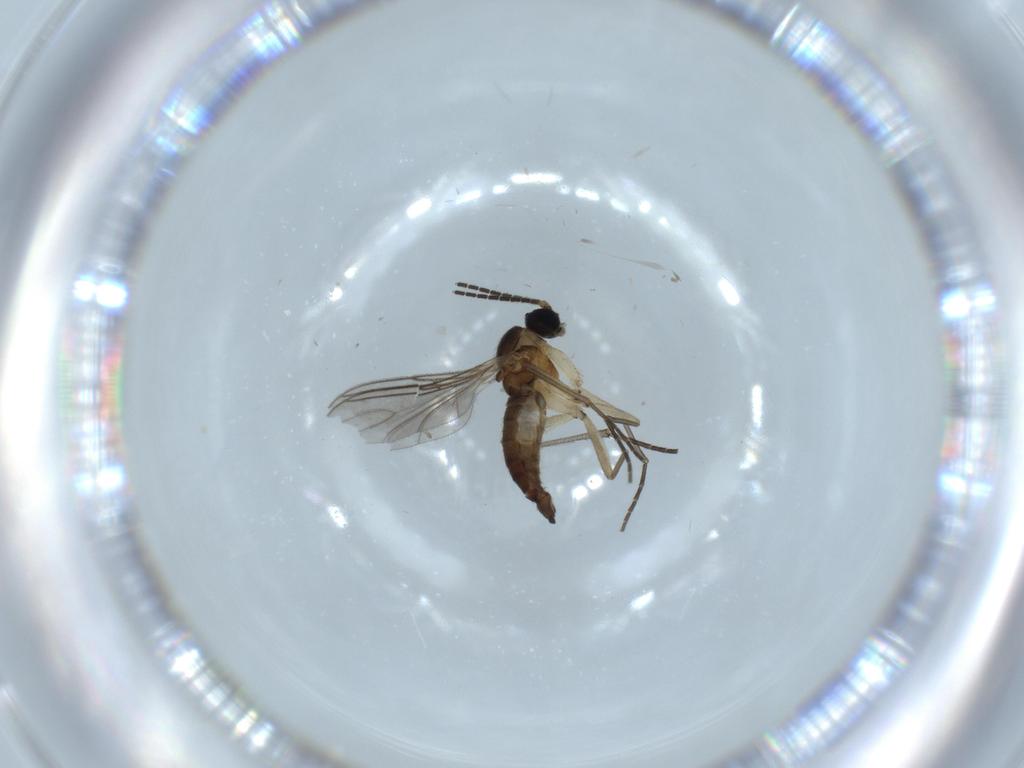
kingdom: Animalia
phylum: Arthropoda
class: Insecta
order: Diptera
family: Sciaridae
